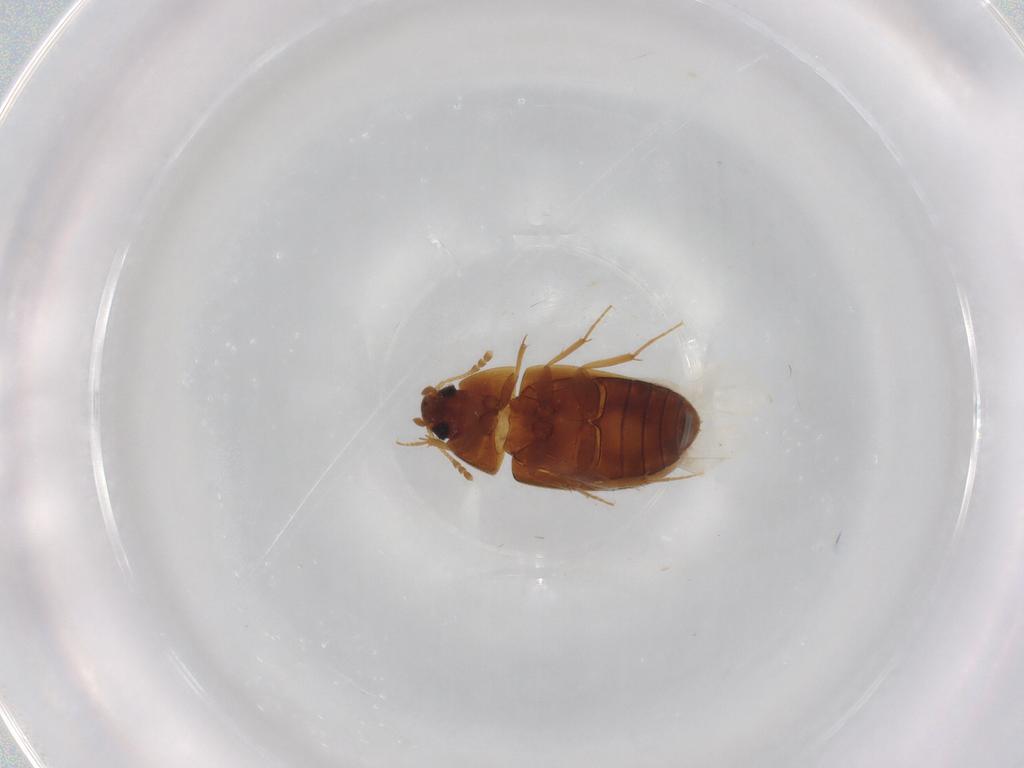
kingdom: Animalia
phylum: Arthropoda
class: Insecta
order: Coleoptera
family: Mycetophagidae
